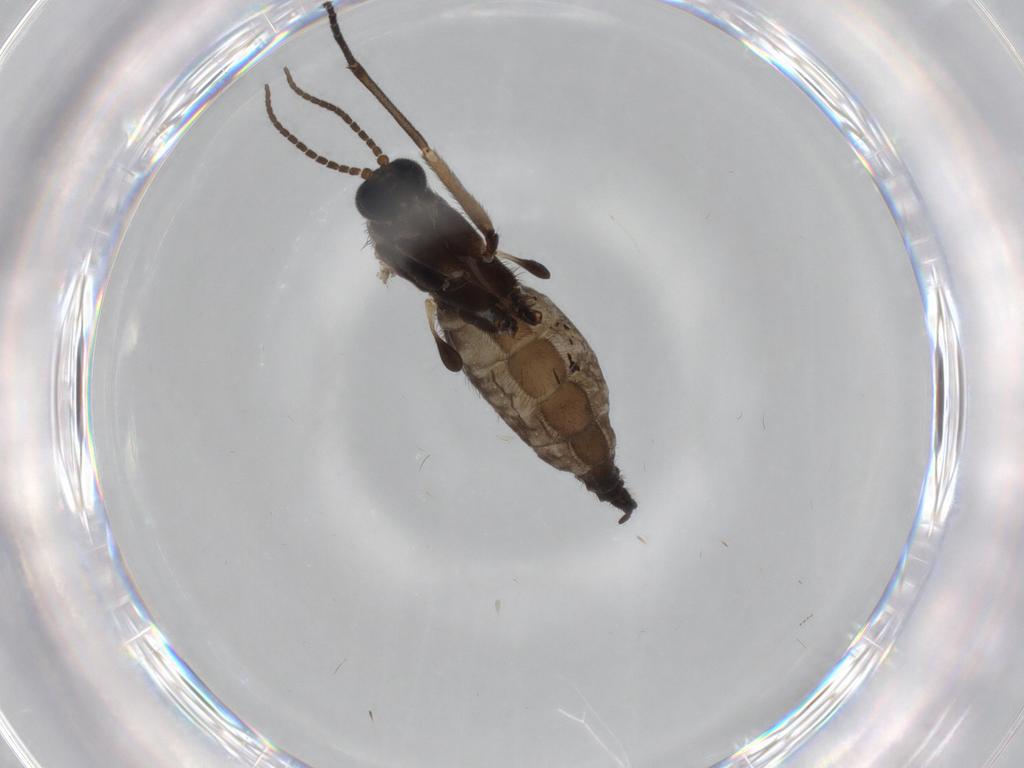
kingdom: Animalia
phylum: Arthropoda
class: Insecta
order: Diptera
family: Sciaridae
